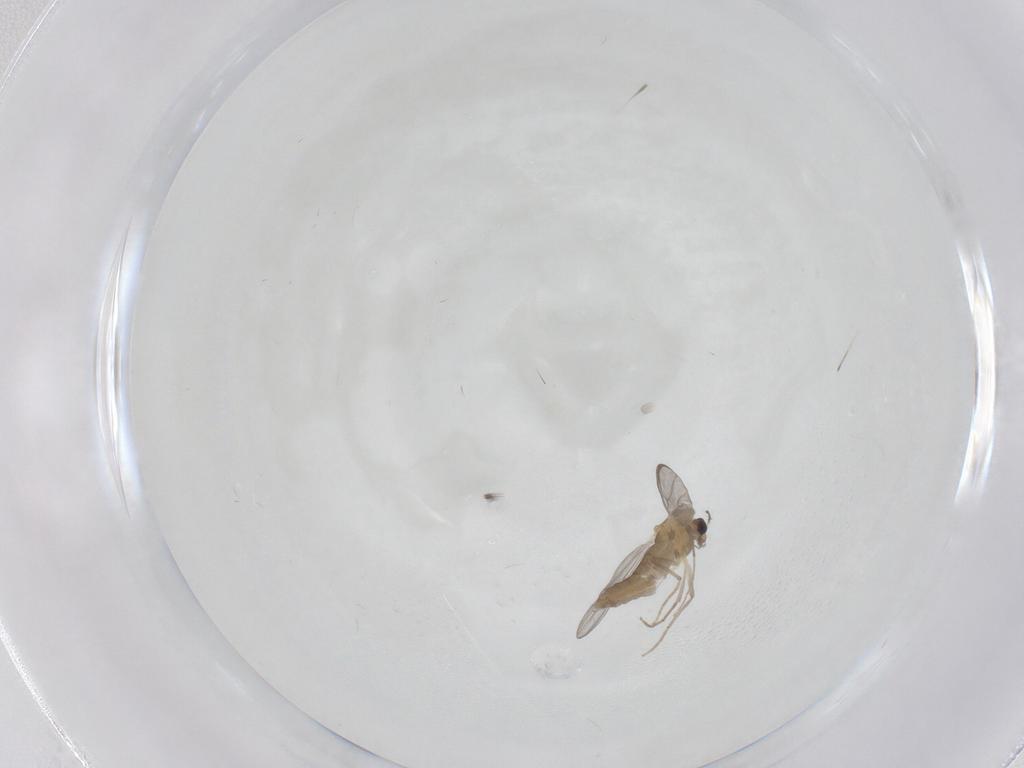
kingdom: Animalia
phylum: Arthropoda
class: Insecta
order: Diptera
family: Chironomidae
